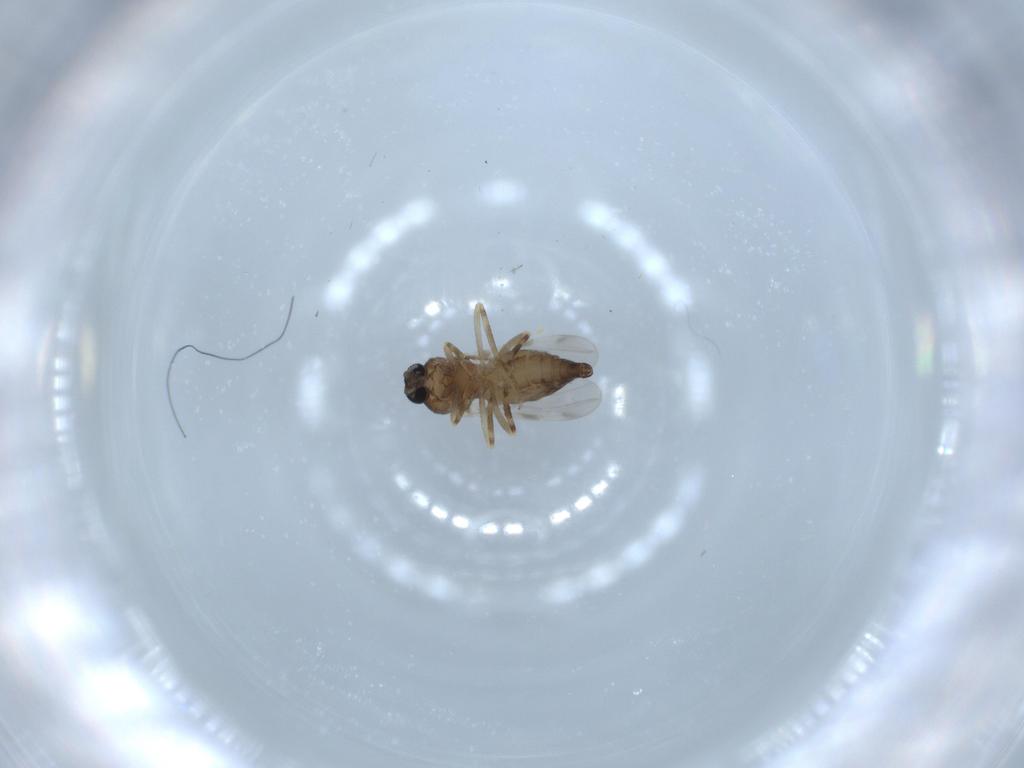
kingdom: Animalia
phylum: Arthropoda
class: Insecta
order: Diptera
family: Ceratopogonidae
